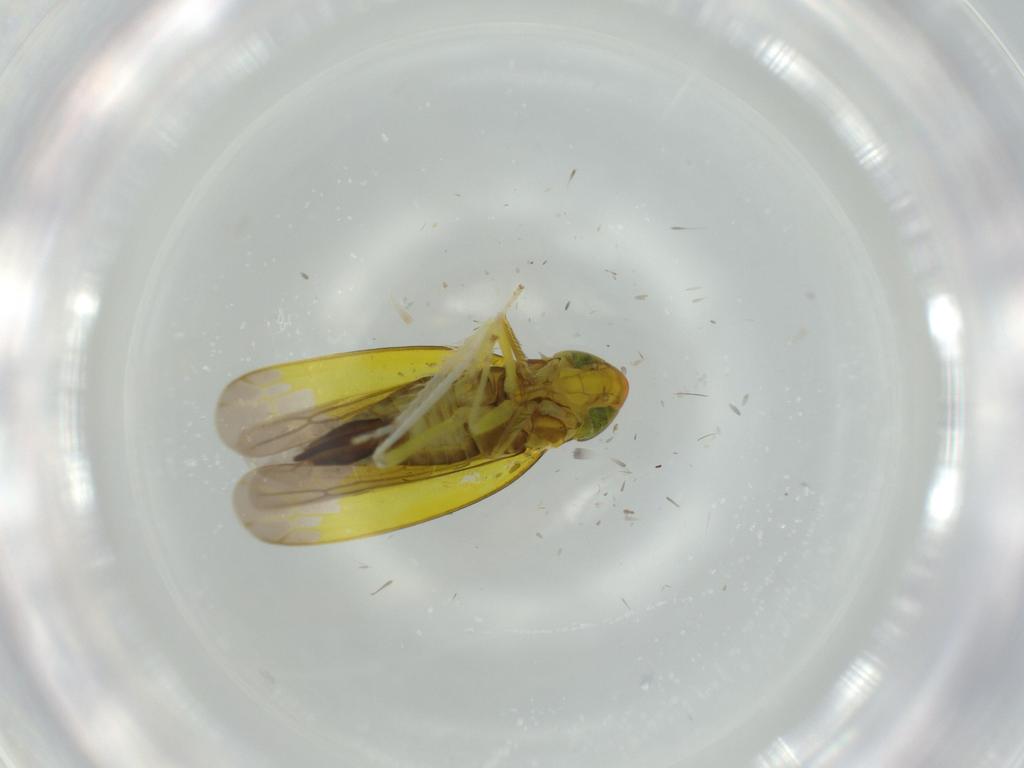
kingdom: Animalia
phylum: Arthropoda
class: Insecta
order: Hemiptera
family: Cicadellidae
